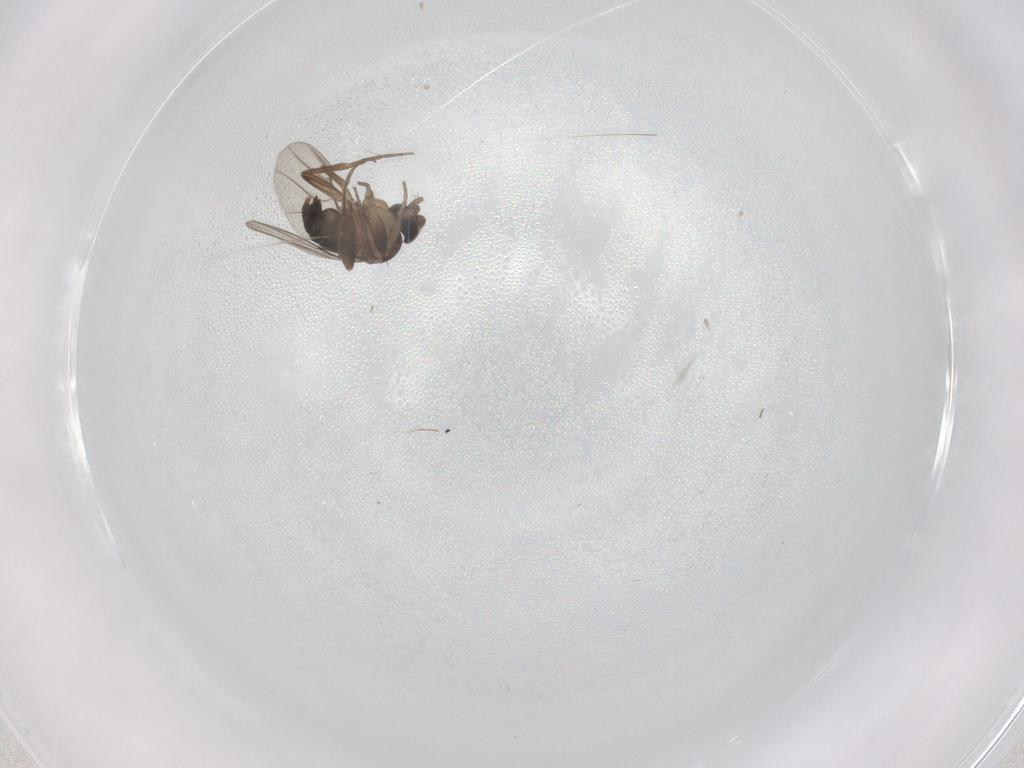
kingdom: Animalia
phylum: Arthropoda
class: Insecta
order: Diptera
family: Phoridae
